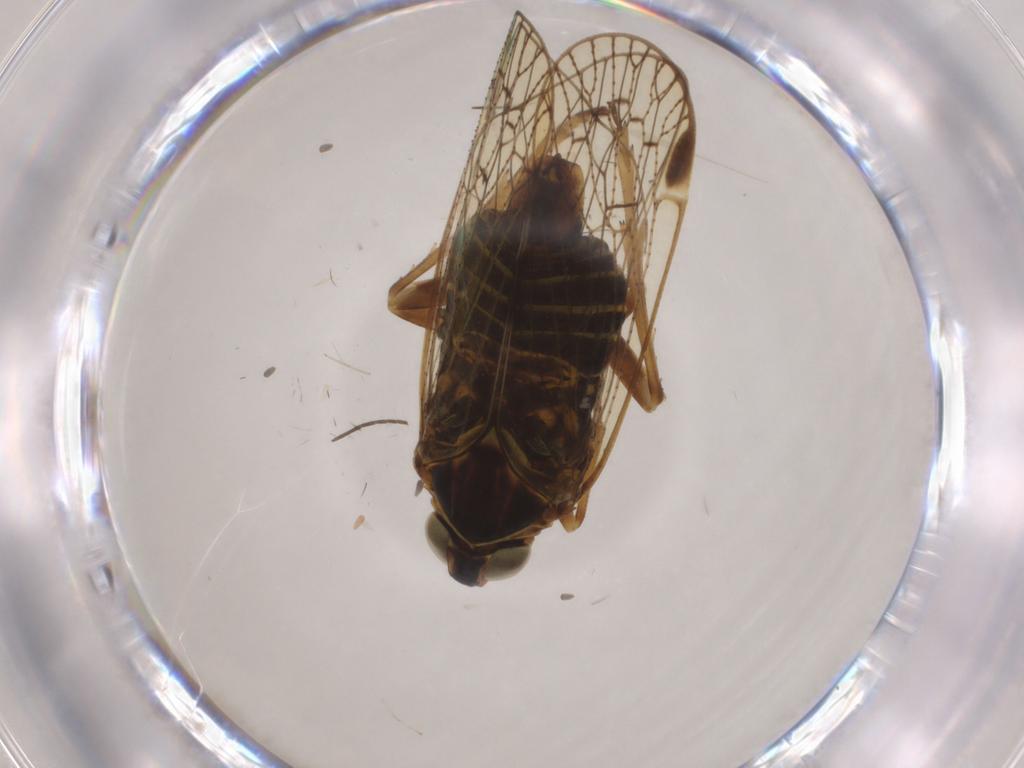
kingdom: Animalia
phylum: Arthropoda
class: Insecta
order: Hemiptera
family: Cixiidae
